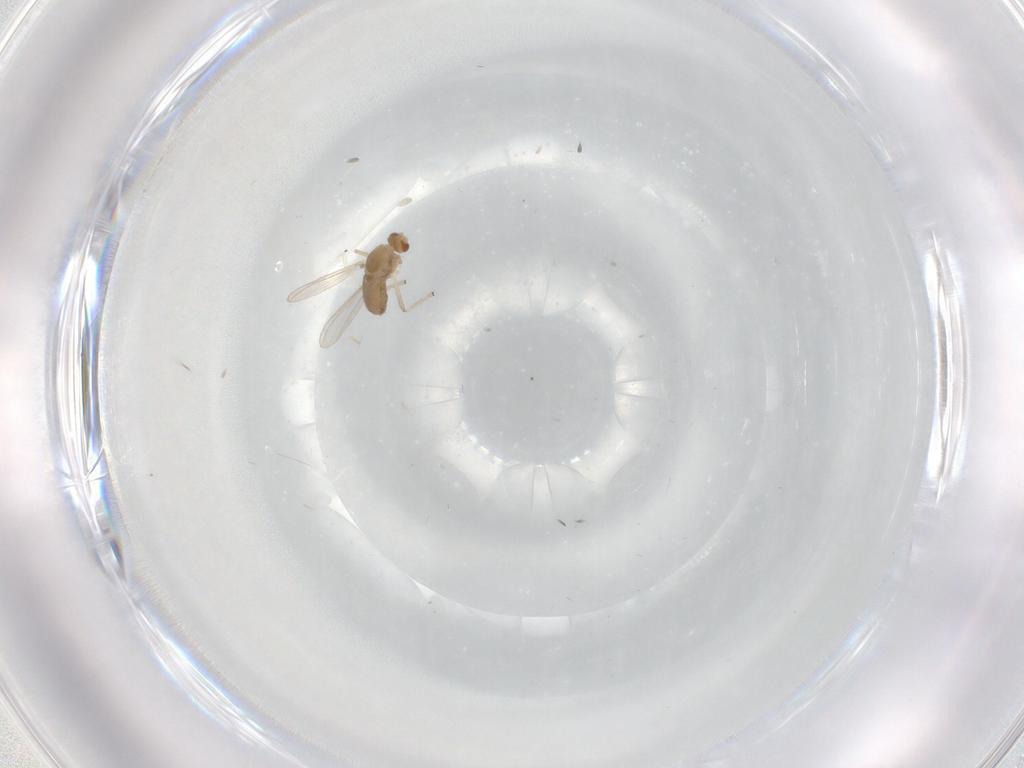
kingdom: Animalia
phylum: Arthropoda
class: Insecta
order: Diptera
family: Chironomidae
